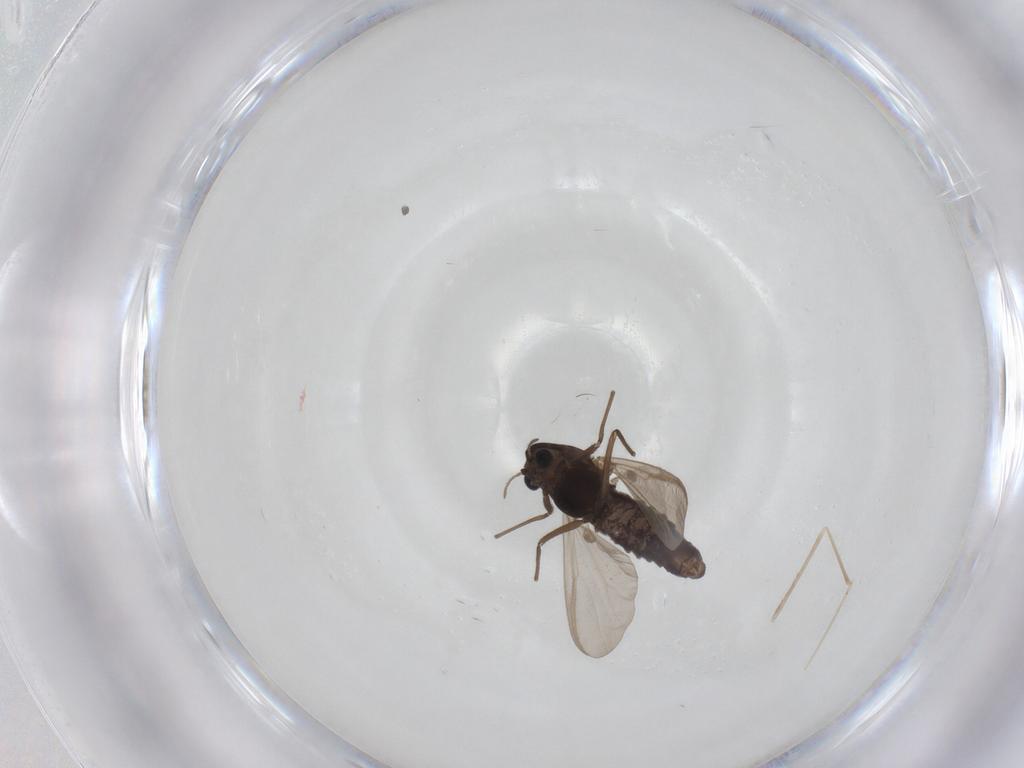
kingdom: Animalia
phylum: Arthropoda
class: Insecta
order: Diptera
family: Chironomidae
